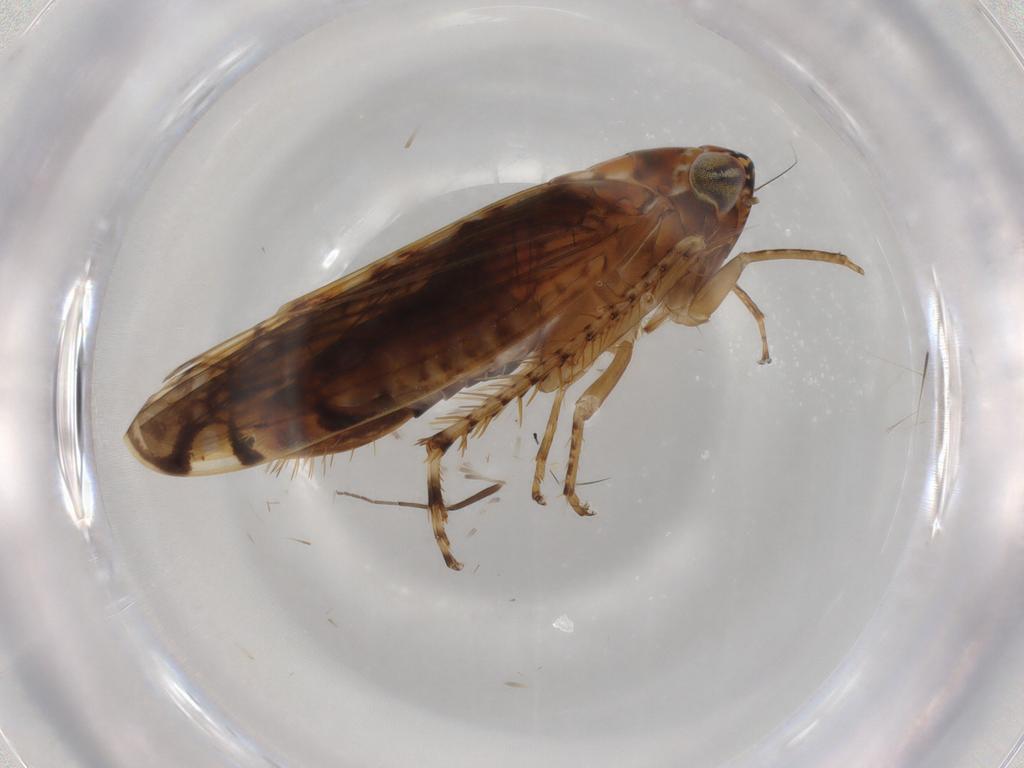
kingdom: Animalia
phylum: Arthropoda
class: Insecta
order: Hemiptera
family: Cicadellidae
